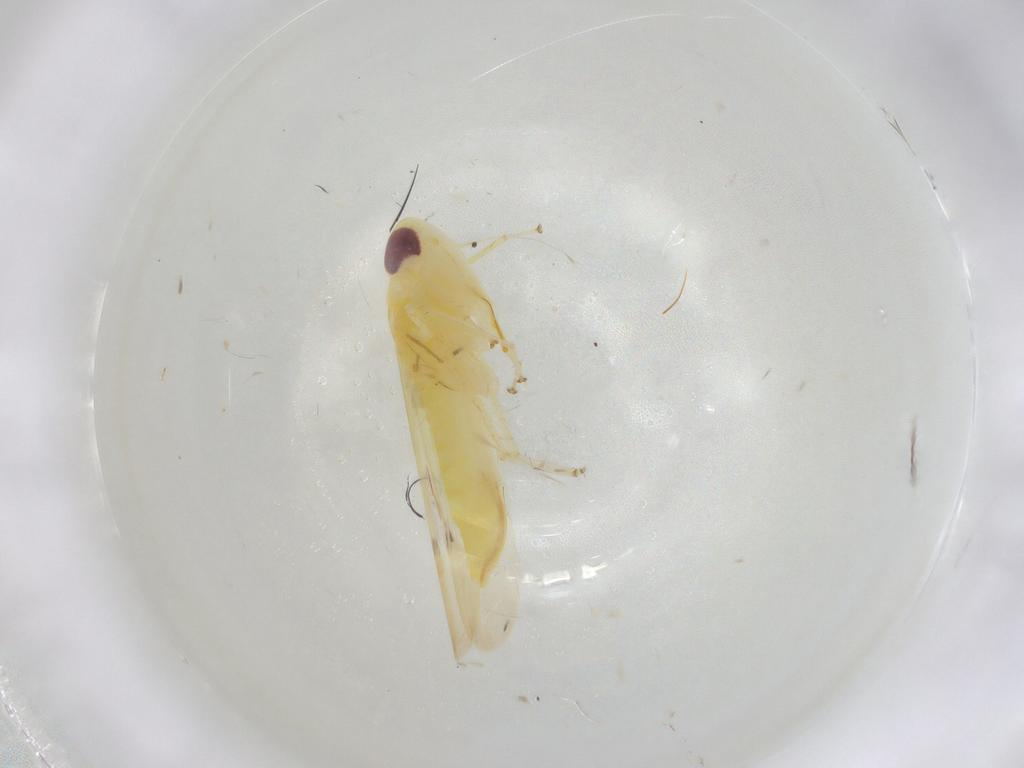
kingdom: Animalia
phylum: Arthropoda
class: Insecta
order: Hemiptera
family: Cicadellidae
